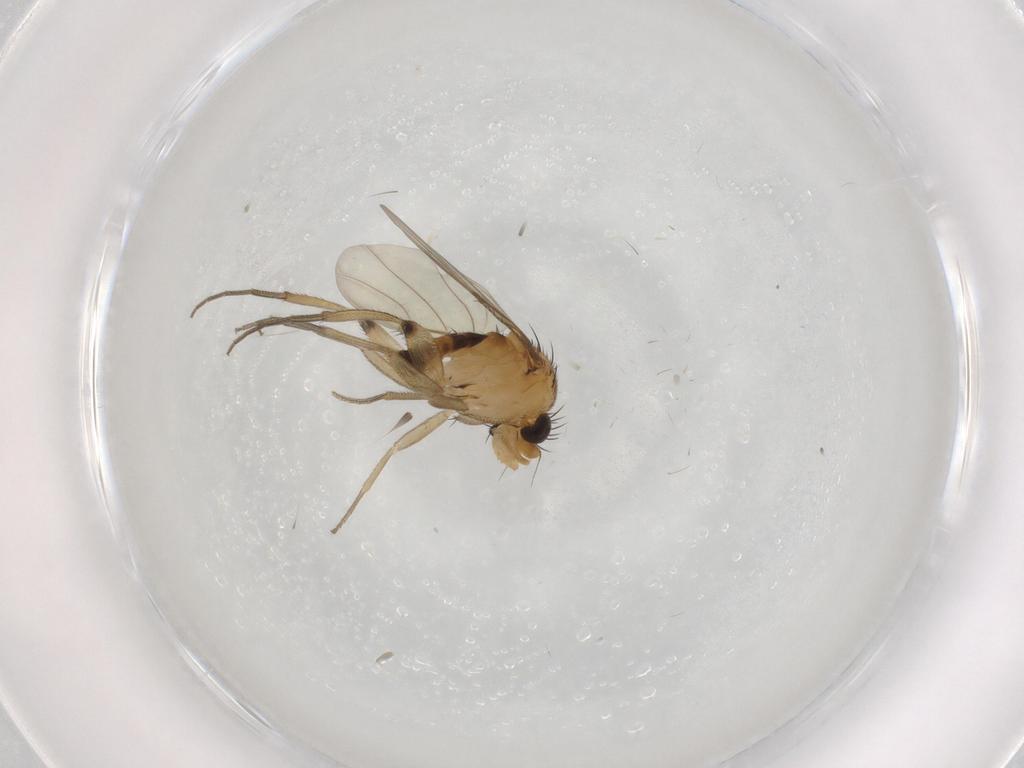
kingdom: Animalia
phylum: Arthropoda
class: Insecta
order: Diptera
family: Phoridae
